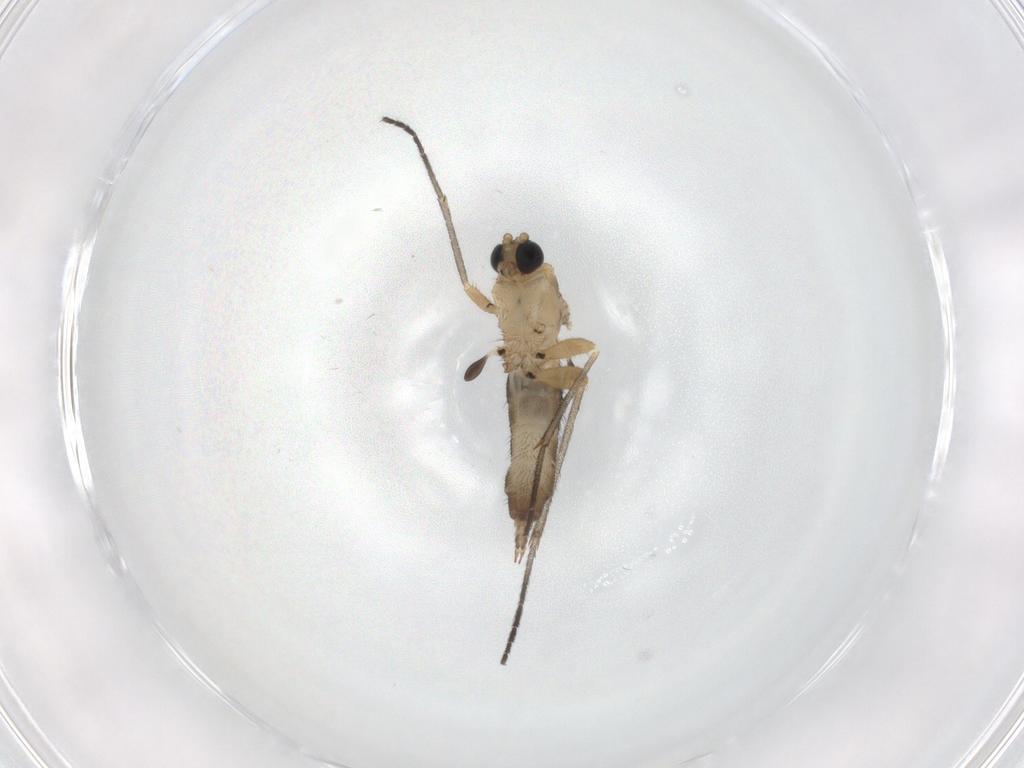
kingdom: Animalia
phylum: Arthropoda
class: Insecta
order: Diptera
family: Sciaridae
